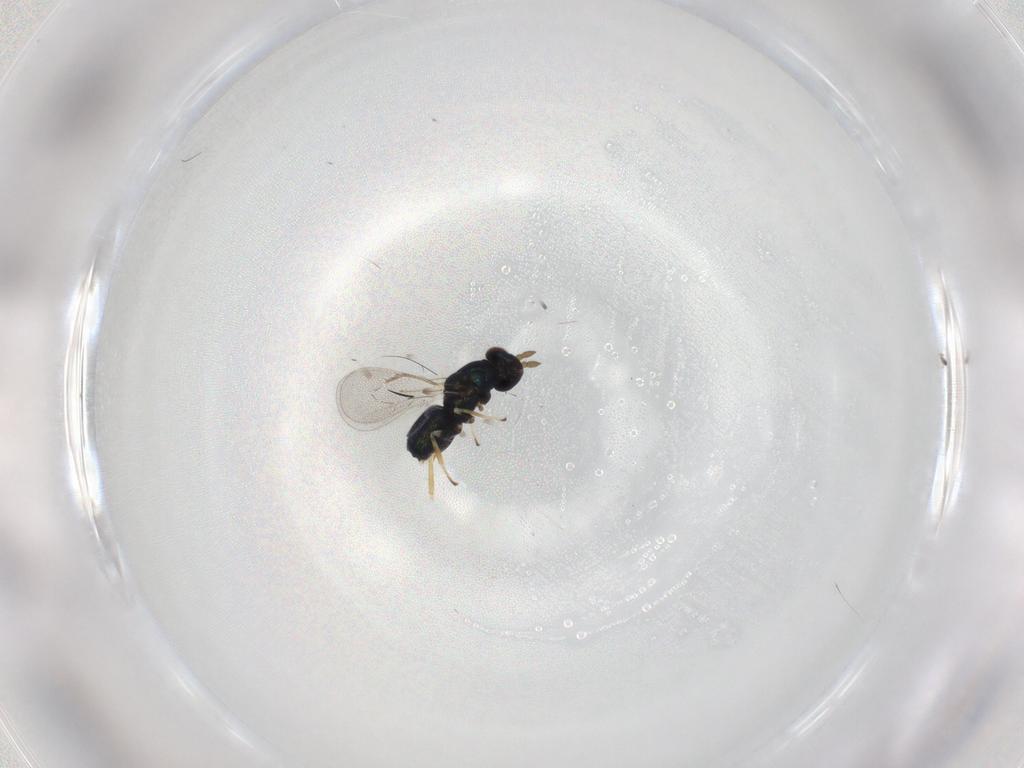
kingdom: Animalia
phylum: Arthropoda
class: Insecta
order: Hymenoptera
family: Eulophidae
